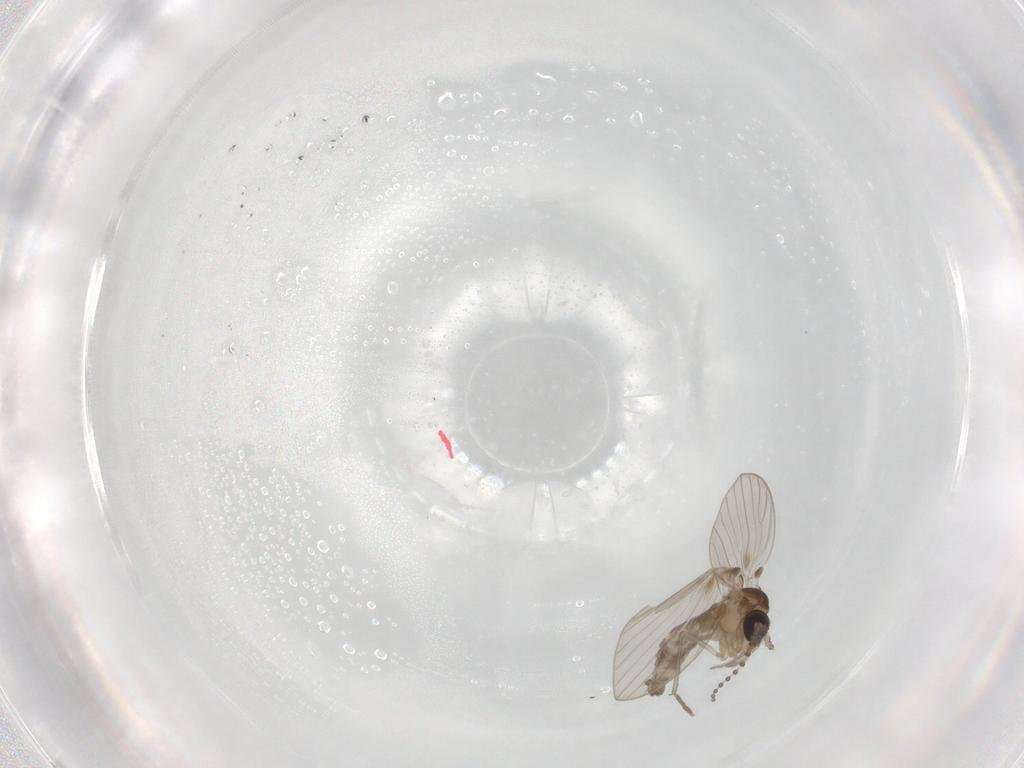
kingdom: Animalia
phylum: Arthropoda
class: Insecta
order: Diptera
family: Psychodidae
